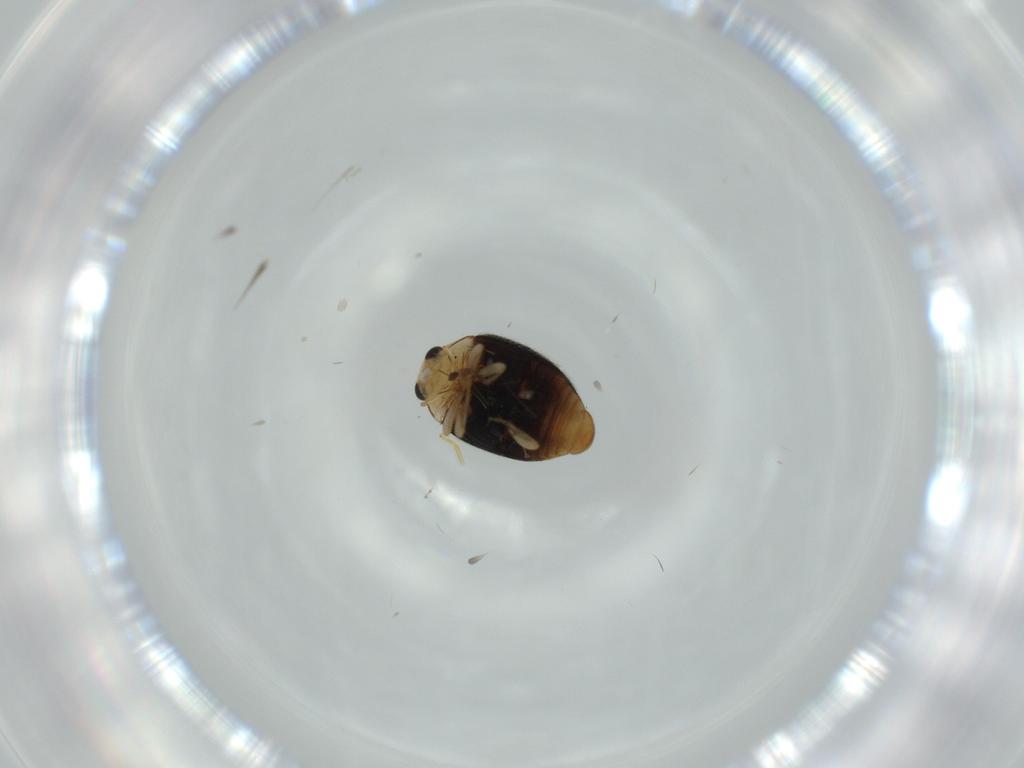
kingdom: Animalia
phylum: Arthropoda
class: Insecta
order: Coleoptera
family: Coccinellidae
